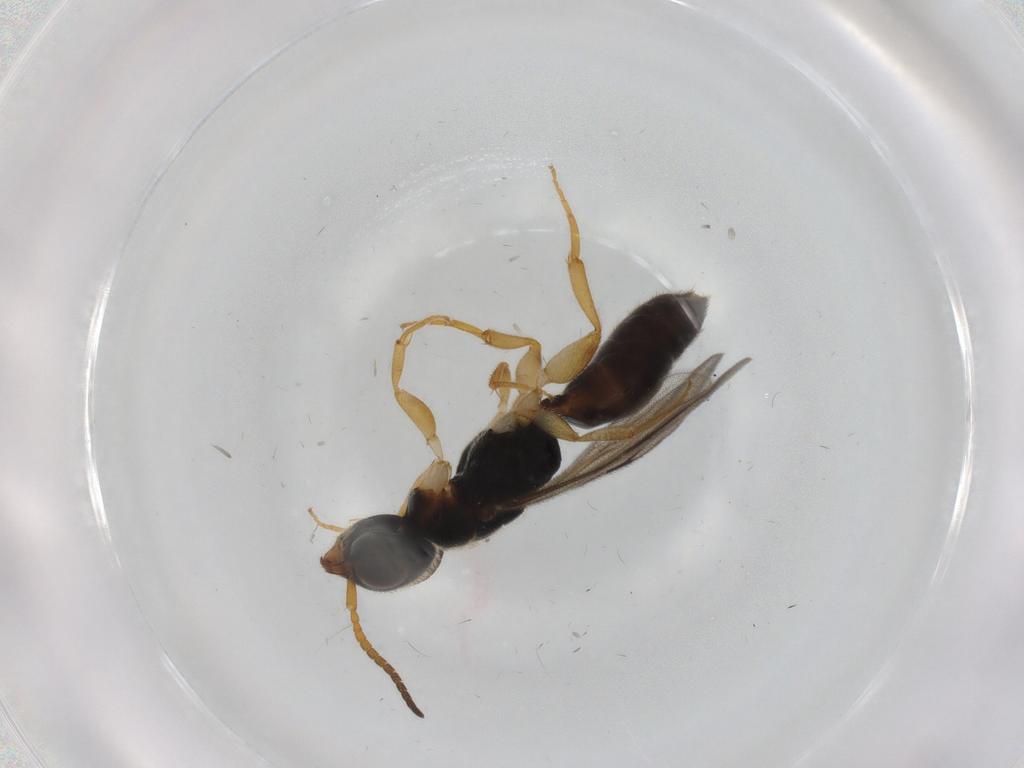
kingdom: Animalia
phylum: Arthropoda
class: Insecta
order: Hymenoptera
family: Bethylidae
